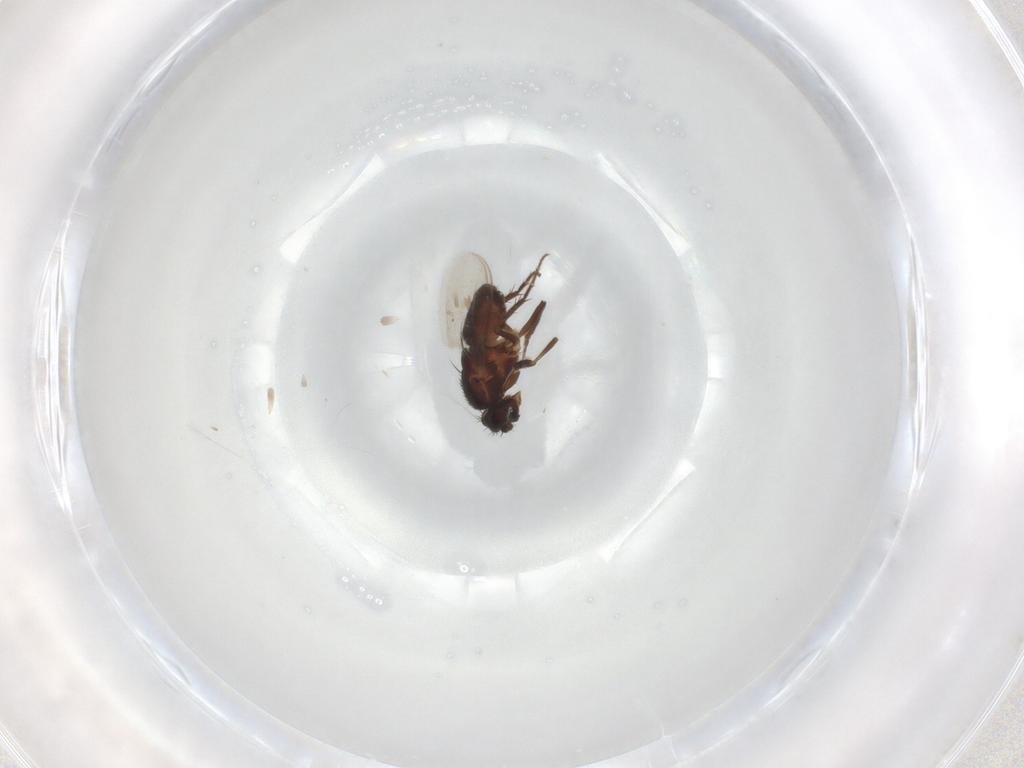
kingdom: Animalia
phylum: Arthropoda
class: Insecta
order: Diptera
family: Sphaeroceridae
